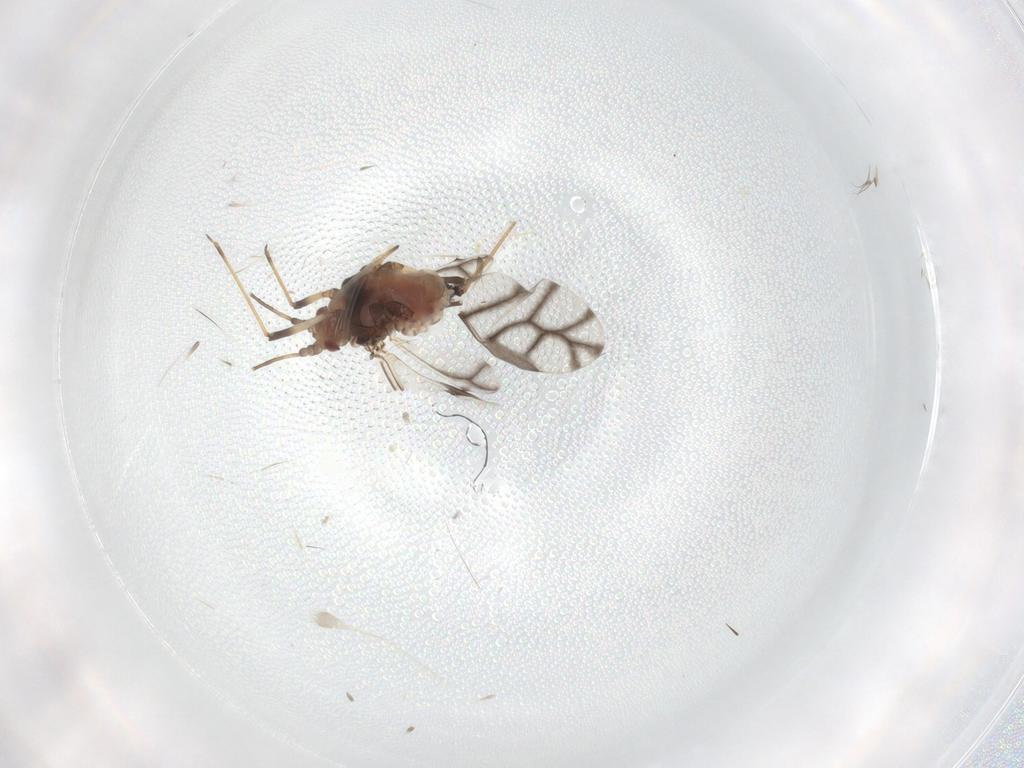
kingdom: Animalia
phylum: Arthropoda
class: Insecta
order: Hemiptera
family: Aphididae
